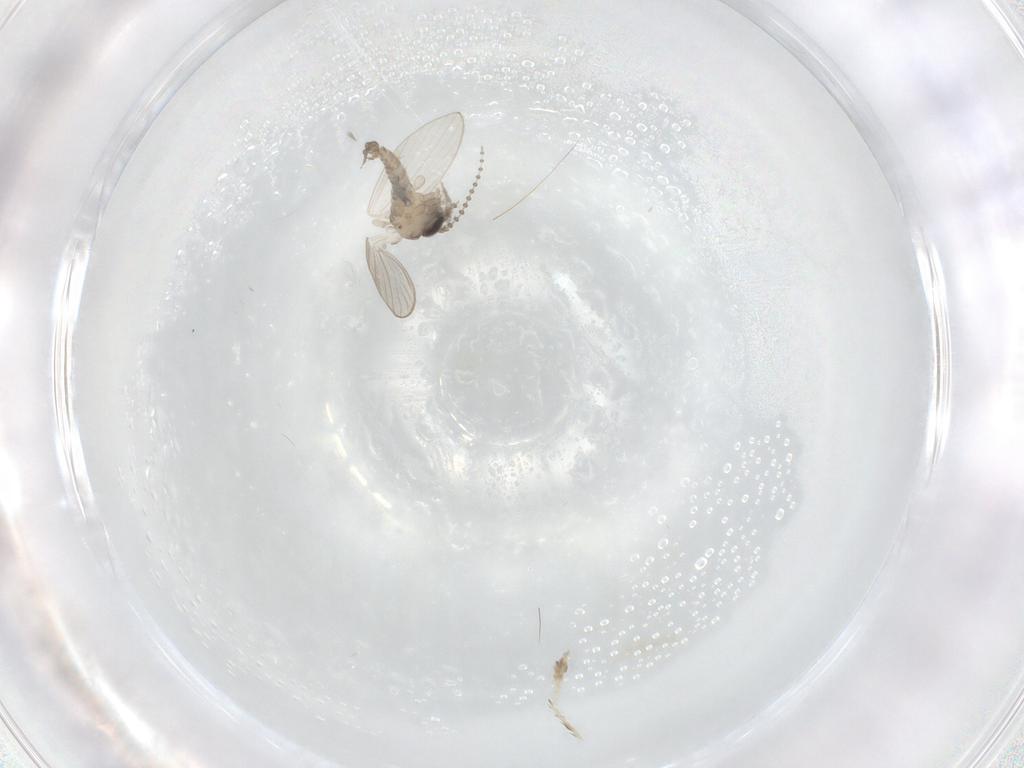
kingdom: Animalia
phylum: Arthropoda
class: Insecta
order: Diptera
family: Psychodidae
